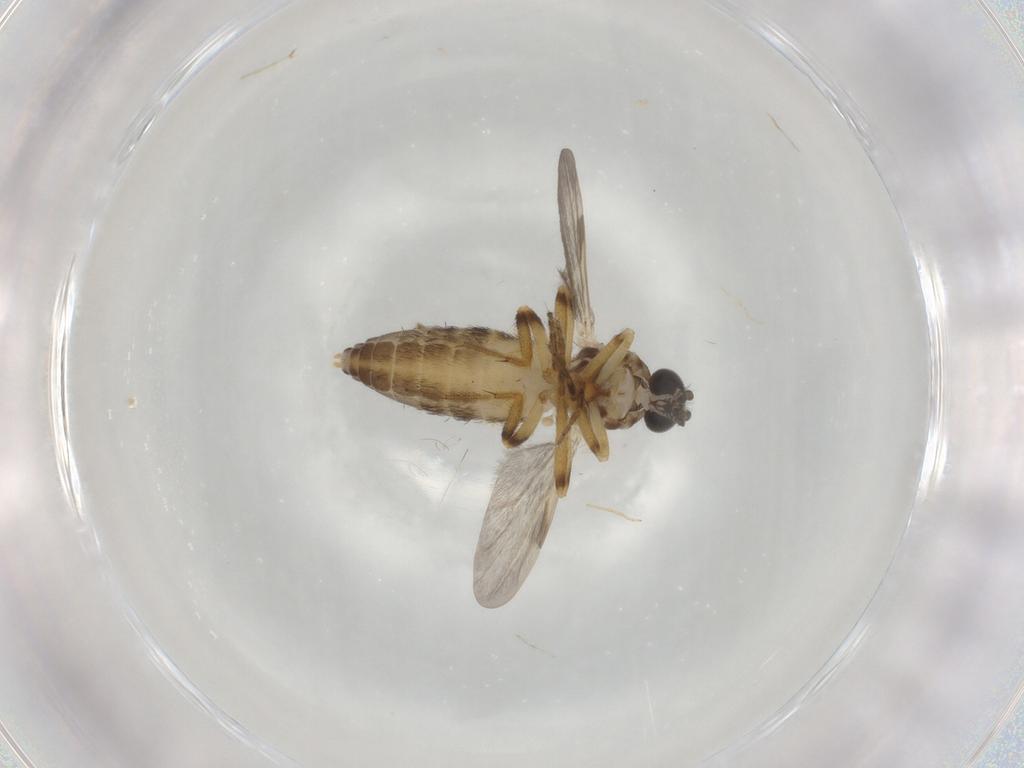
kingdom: Animalia
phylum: Arthropoda
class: Insecta
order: Diptera
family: Ceratopogonidae
